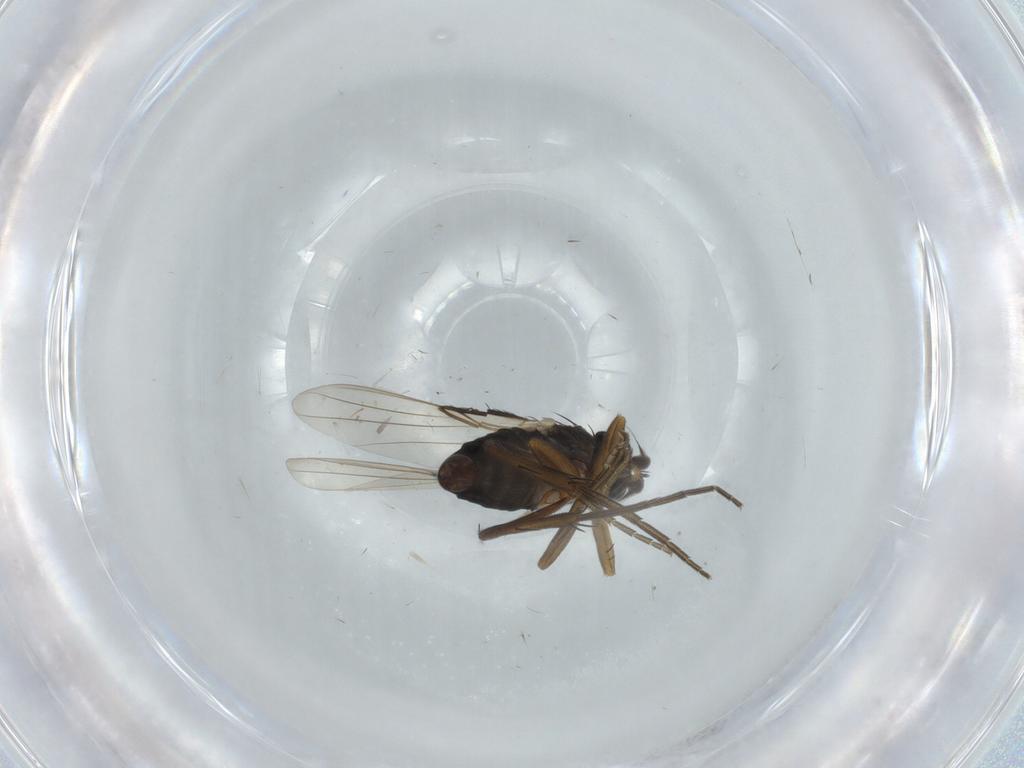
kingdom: Animalia
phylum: Arthropoda
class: Insecta
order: Diptera
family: Phoridae
